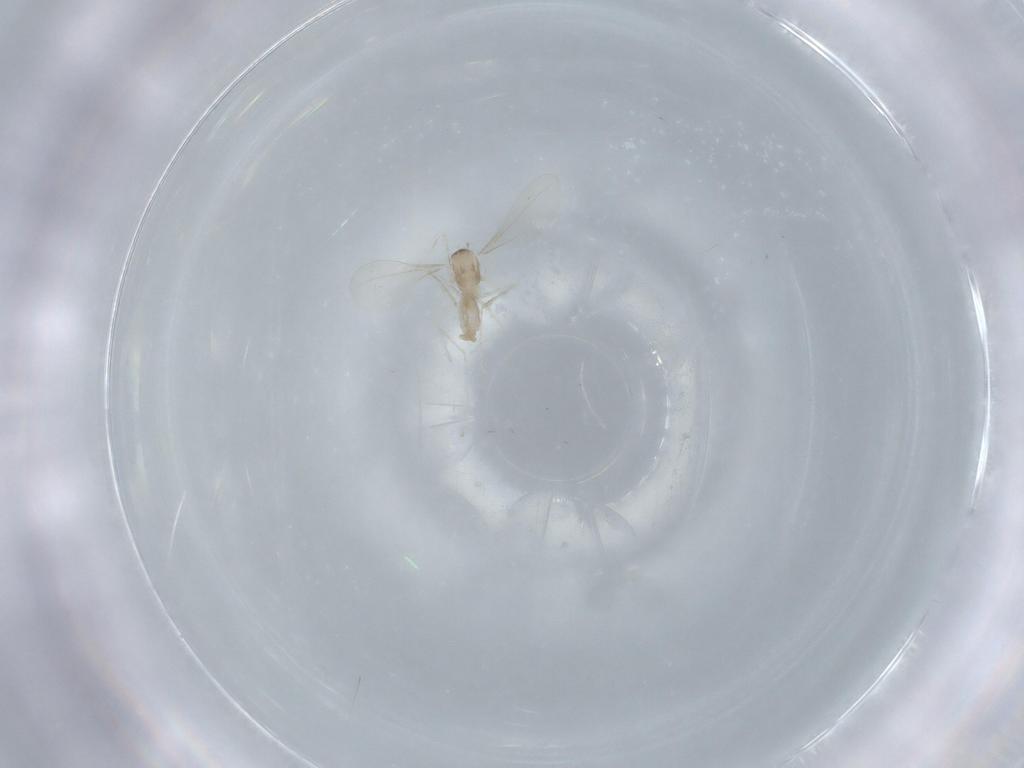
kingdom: Animalia
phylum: Arthropoda
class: Insecta
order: Diptera
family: Cecidomyiidae
